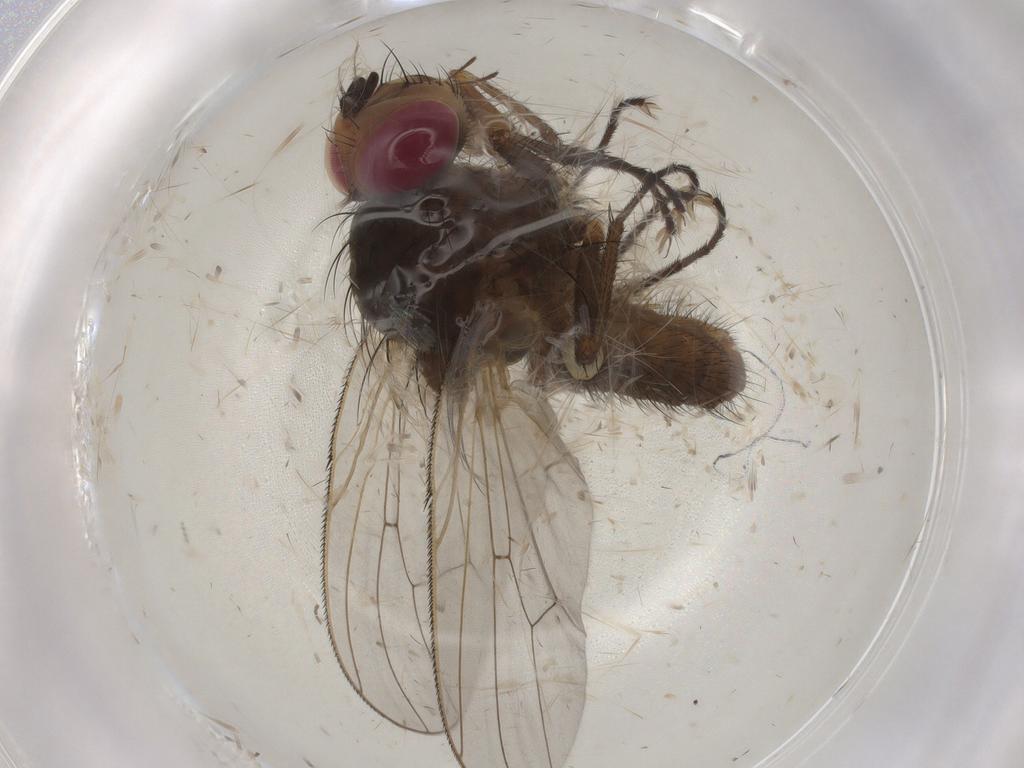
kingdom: Animalia
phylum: Arthropoda
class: Insecta
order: Diptera
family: Anthomyiidae
